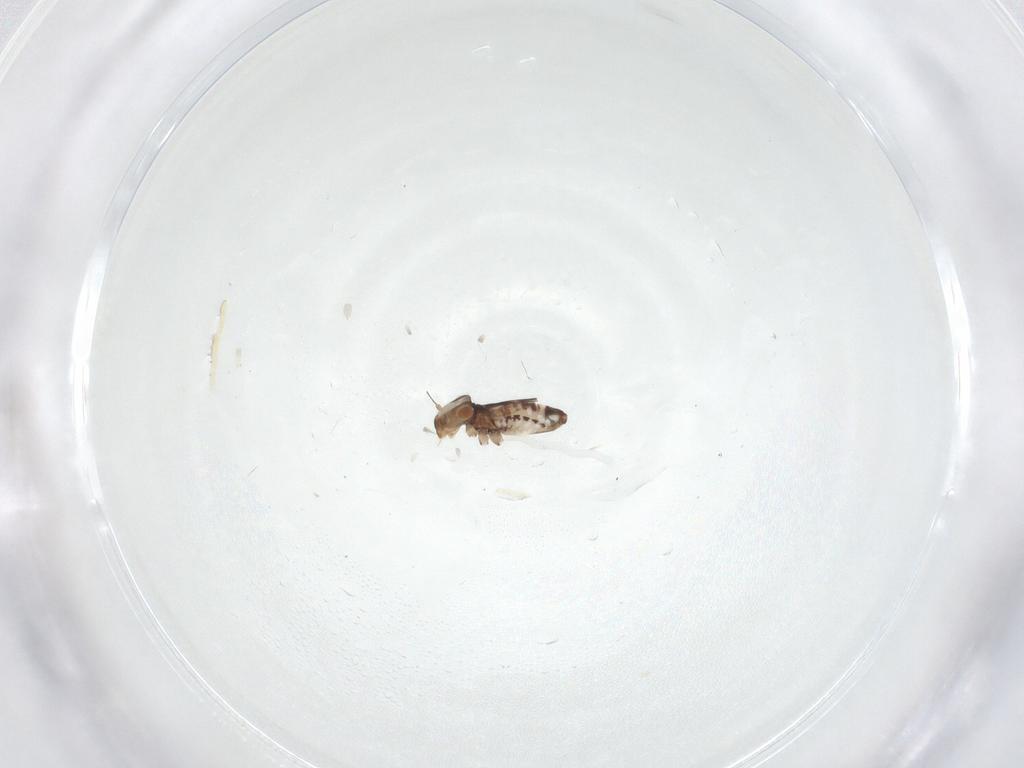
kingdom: Animalia
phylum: Arthropoda
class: Insecta
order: Psocodea
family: Lepidopsocidae
